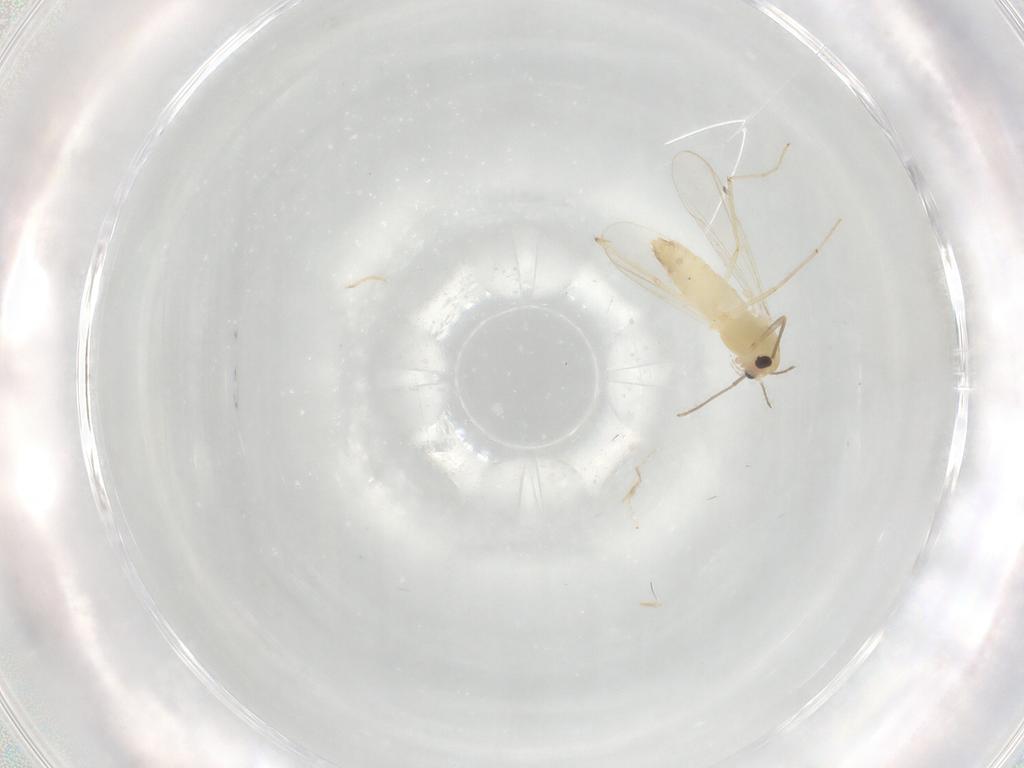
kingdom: Animalia
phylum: Arthropoda
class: Insecta
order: Diptera
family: Chironomidae
